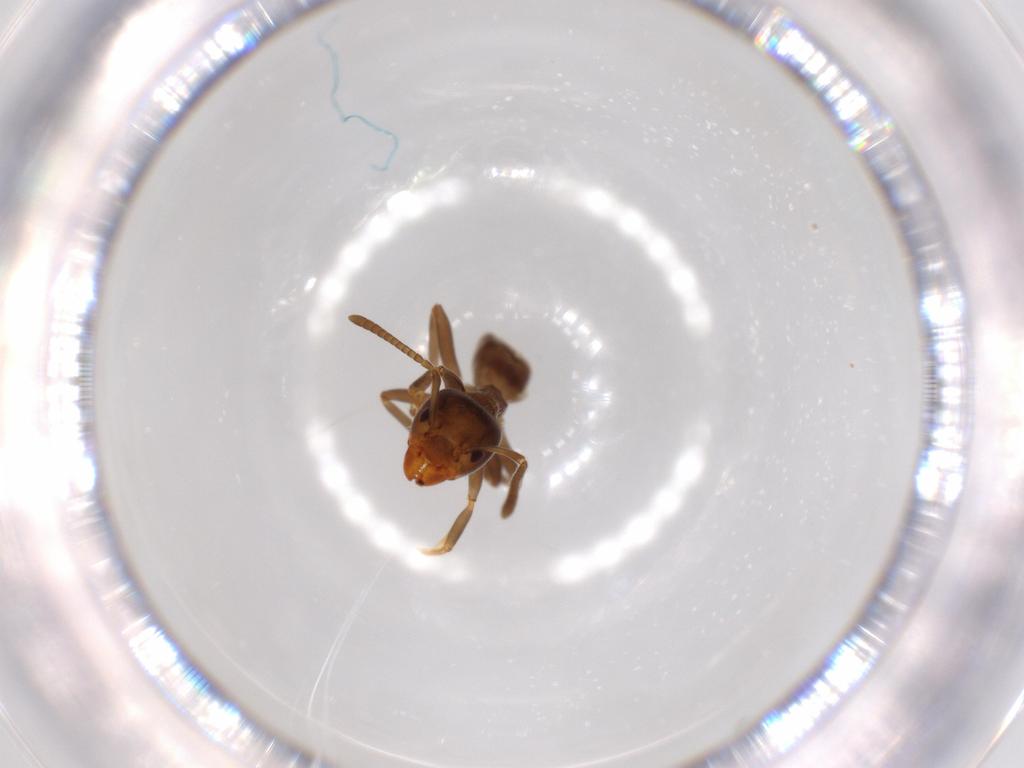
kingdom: Animalia
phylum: Arthropoda
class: Insecta
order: Hymenoptera
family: Formicidae
